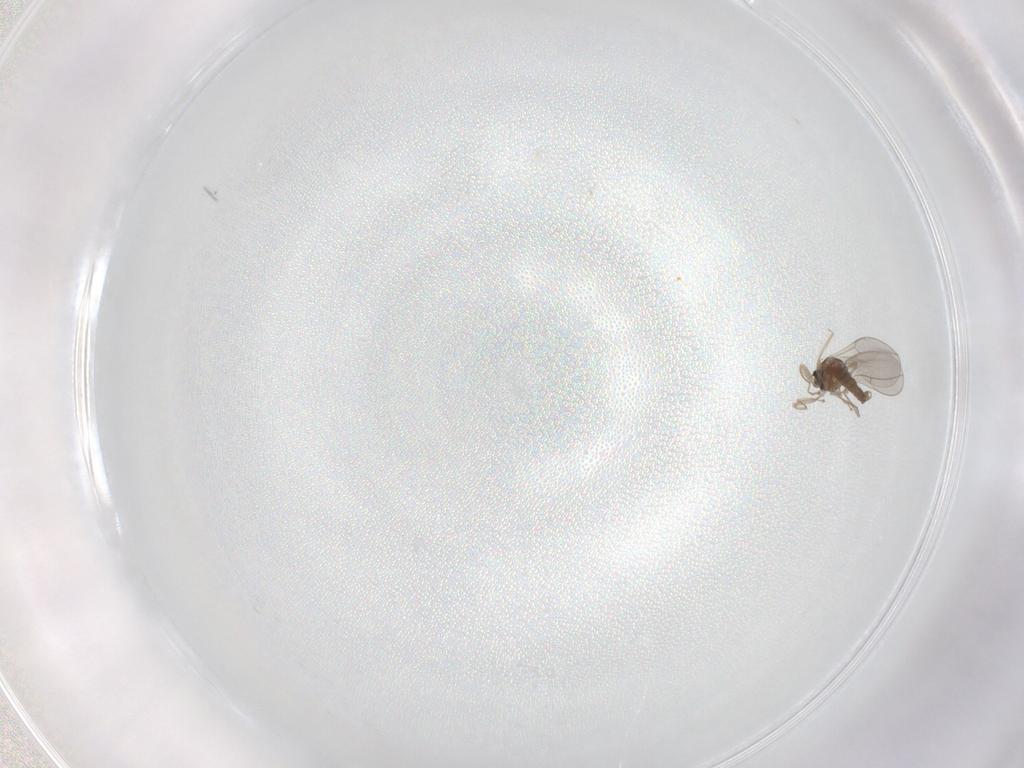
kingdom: Animalia
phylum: Arthropoda
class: Insecta
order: Diptera
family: Cecidomyiidae
